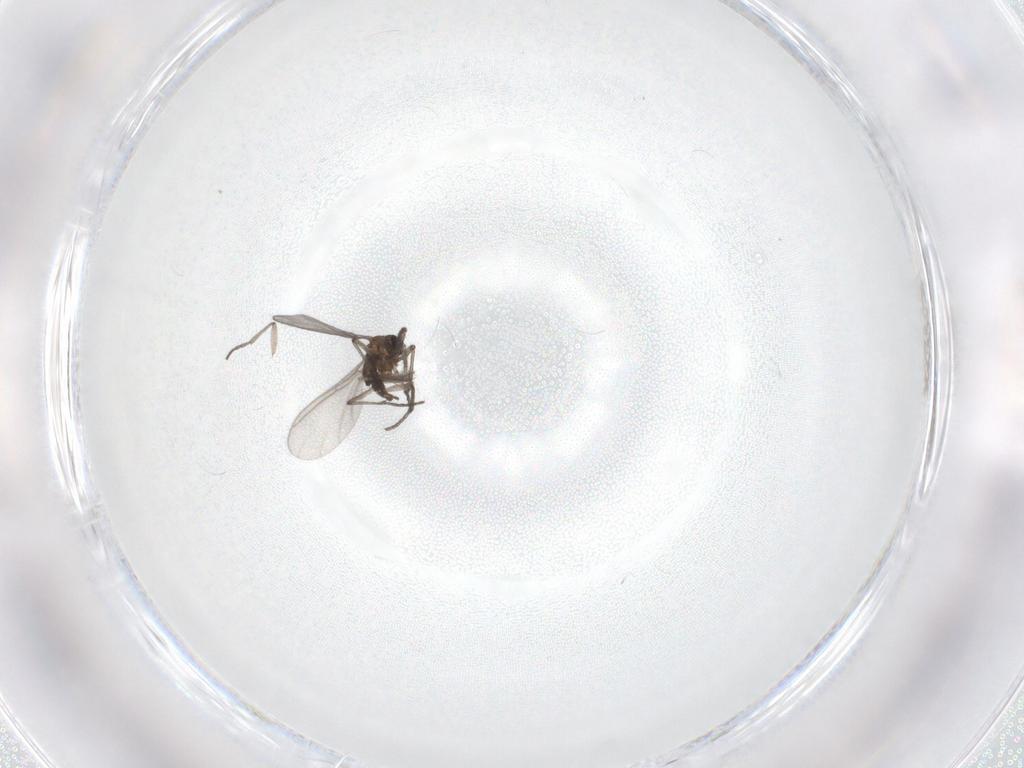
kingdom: Animalia
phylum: Arthropoda
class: Insecta
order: Diptera
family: Sciaridae
